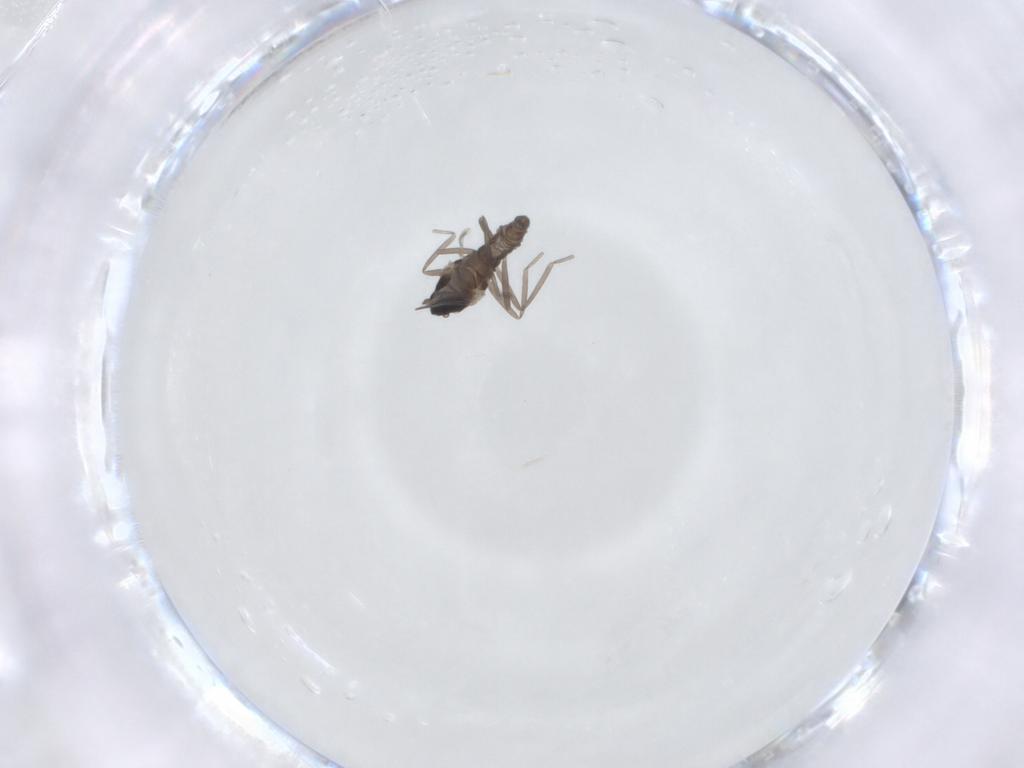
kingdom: Animalia
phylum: Arthropoda
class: Insecta
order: Diptera
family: Cecidomyiidae
